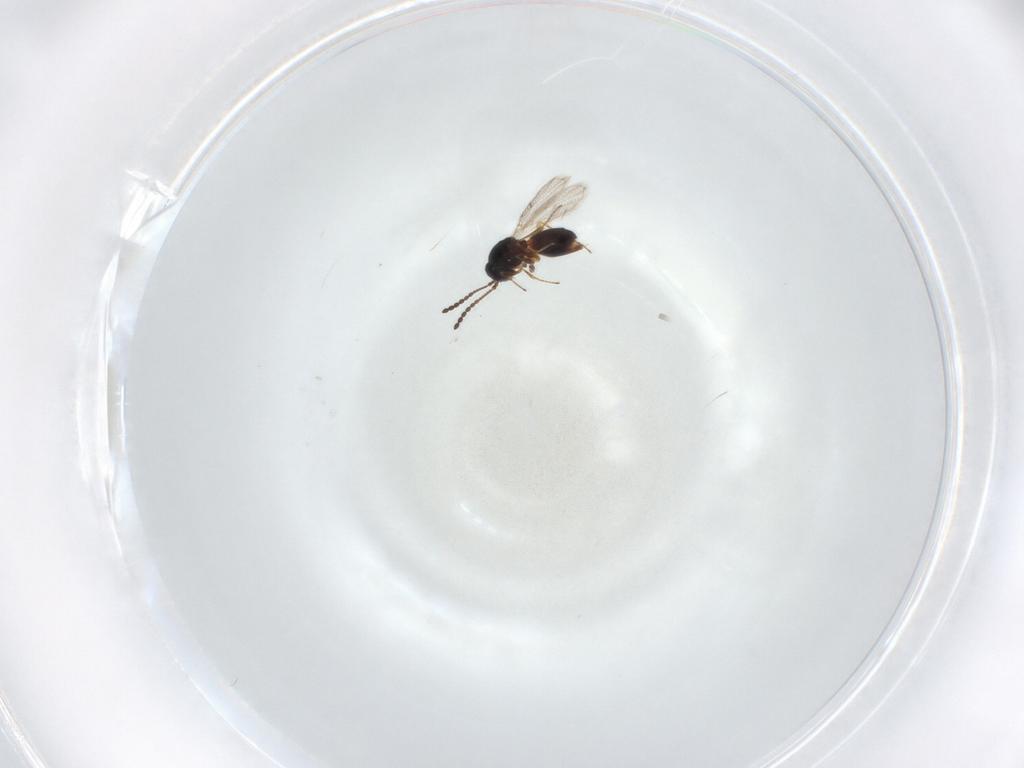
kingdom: Animalia
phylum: Arthropoda
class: Insecta
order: Hymenoptera
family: Figitidae
